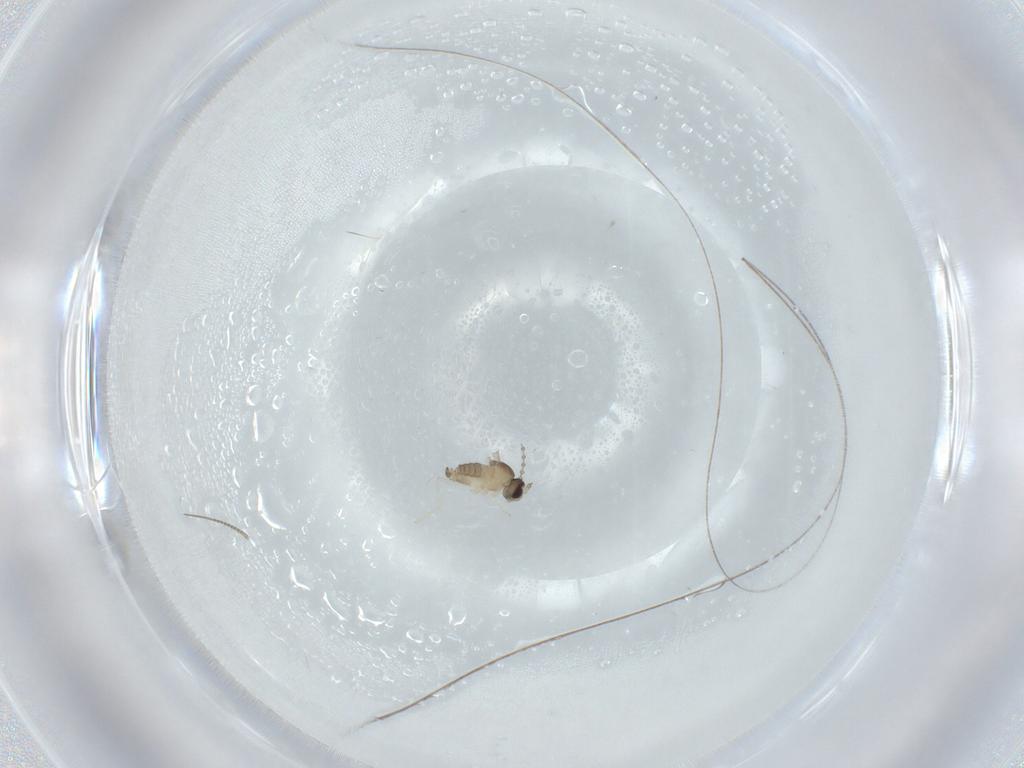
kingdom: Animalia
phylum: Arthropoda
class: Insecta
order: Diptera
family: Cecidomyiidae
